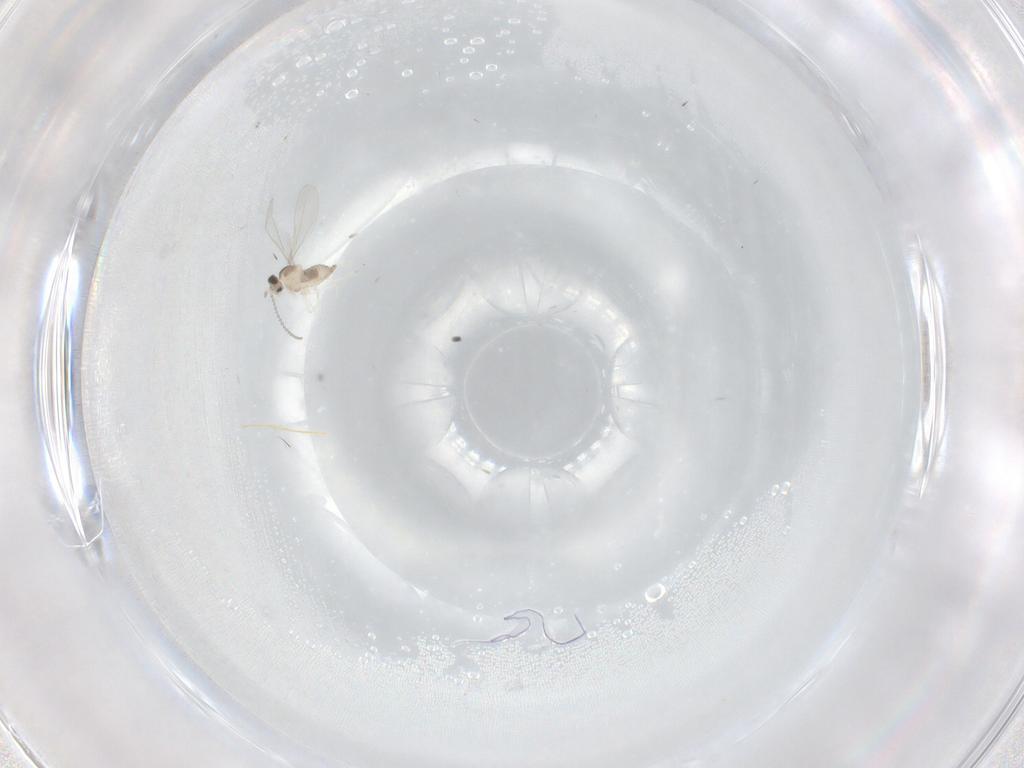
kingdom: Animalia
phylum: Arthropoda
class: Insecta
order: Diptera
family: Cecidomyiidae
